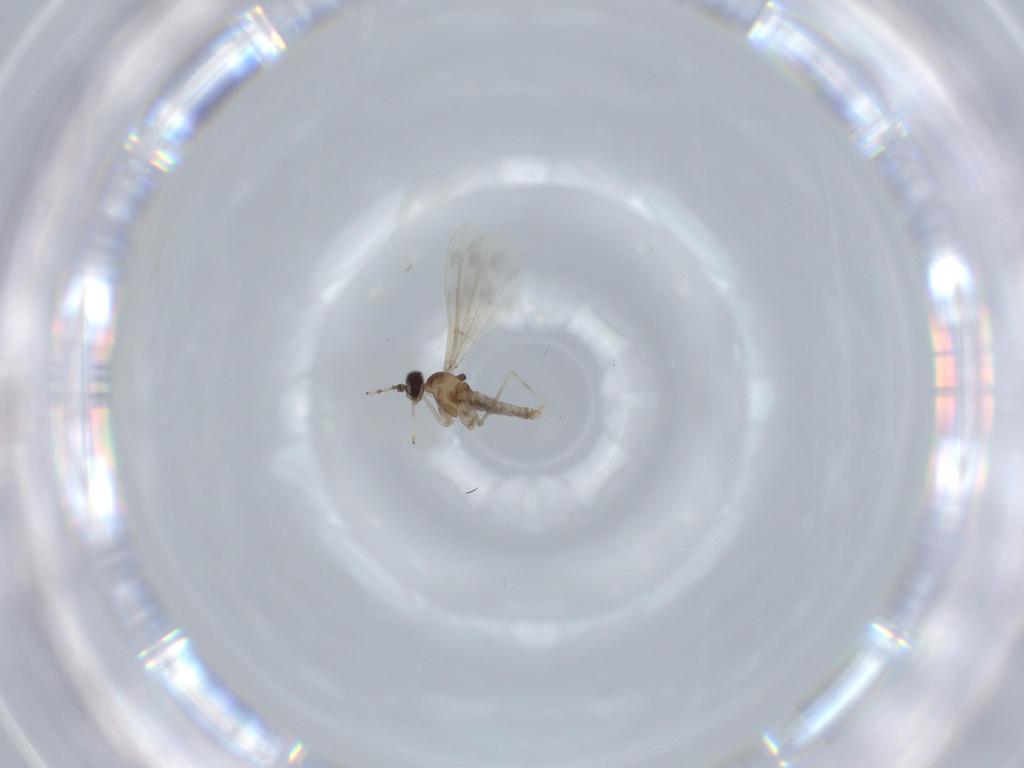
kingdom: Animalia
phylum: Arthropoda
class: Insecta
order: Diptera
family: Cecidomyiidae
